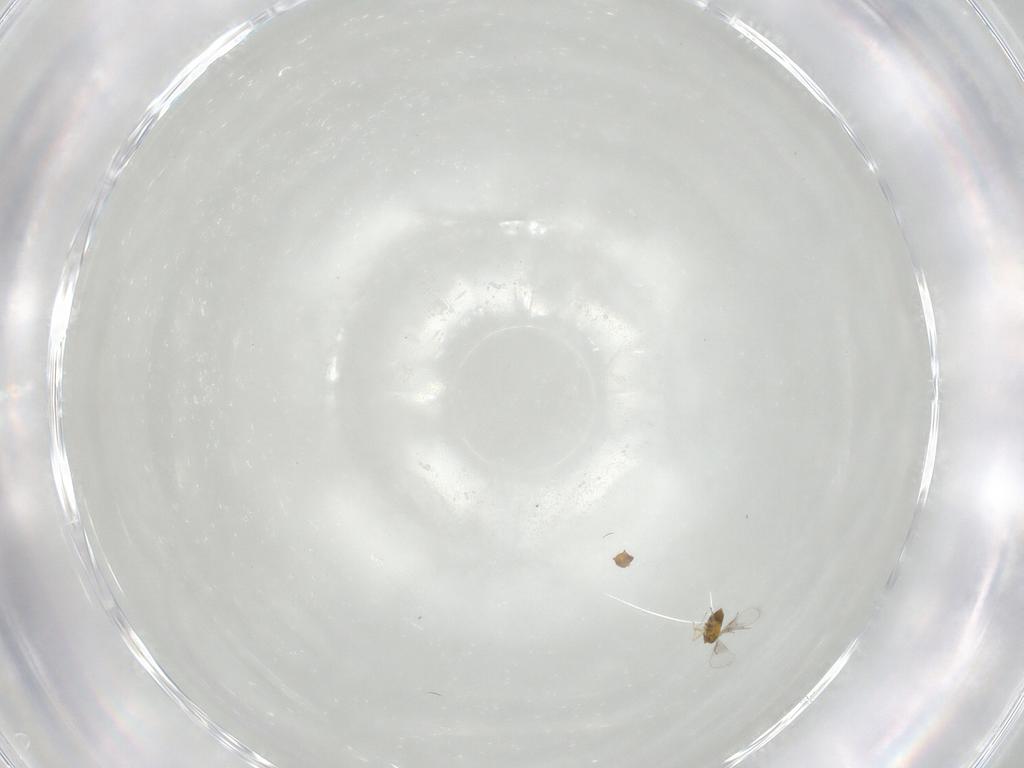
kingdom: Animalia
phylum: Arthropoda
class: Insecta
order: Hymenoptera
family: Trichogrammatidae
